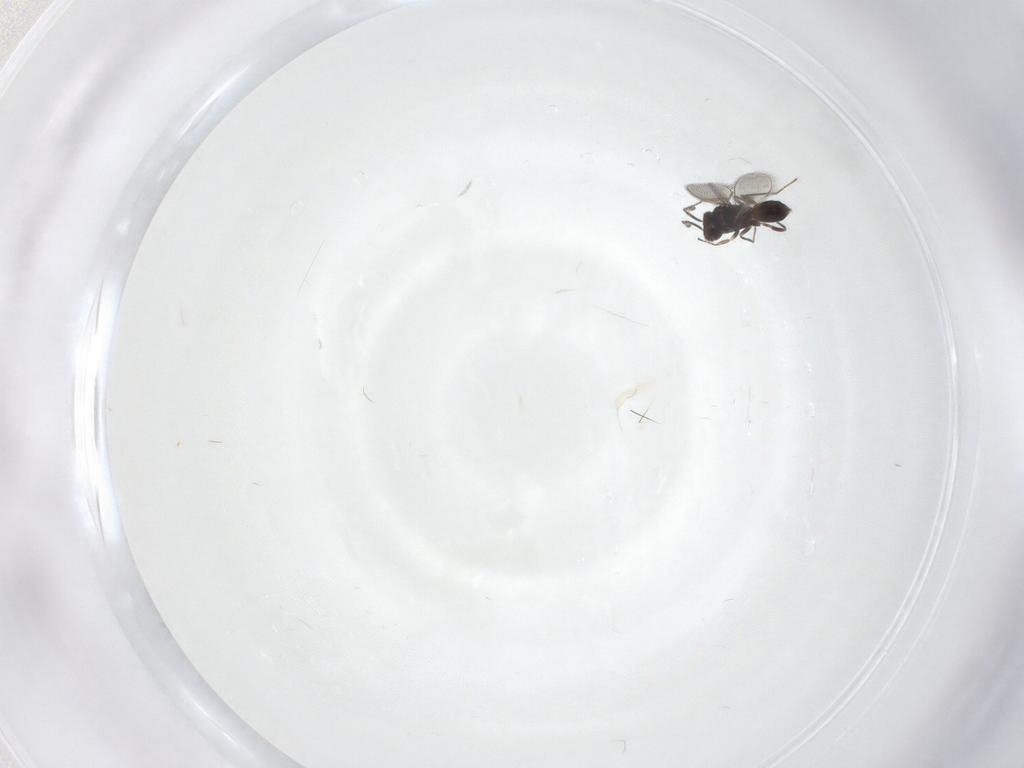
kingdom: Animalia
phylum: Arthropoda
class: Insecta
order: Hymenoptera
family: Mymaridae
